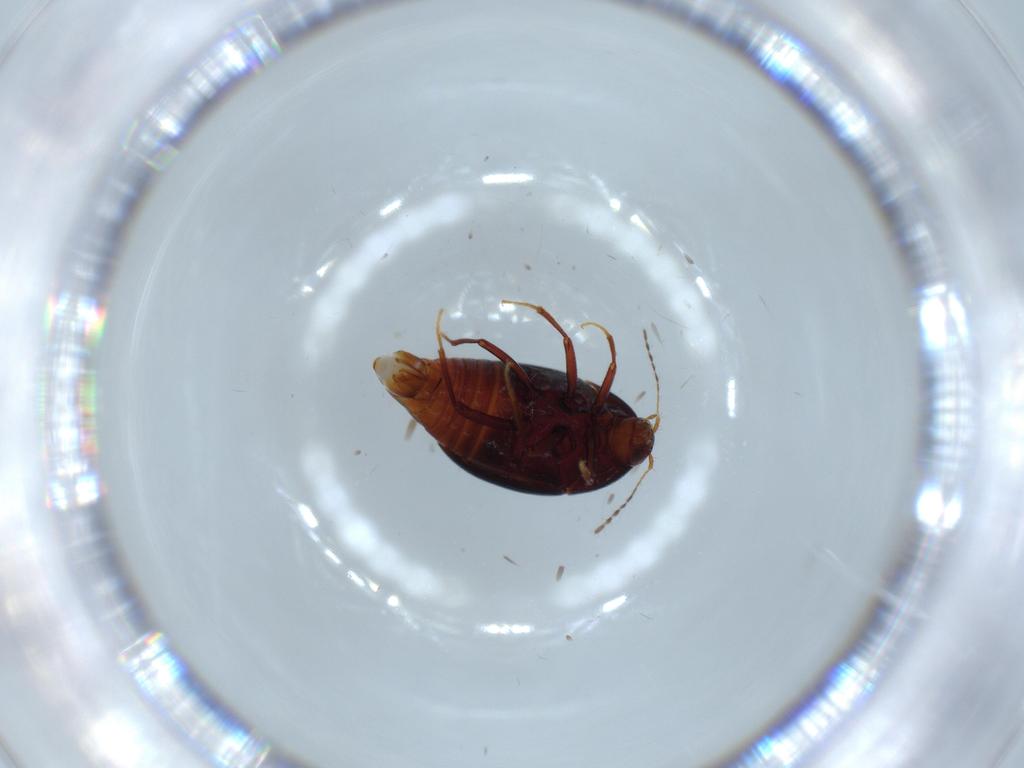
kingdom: Animalia
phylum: Arthropoda
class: Insecta
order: Coleoptera
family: Staphylinidae
